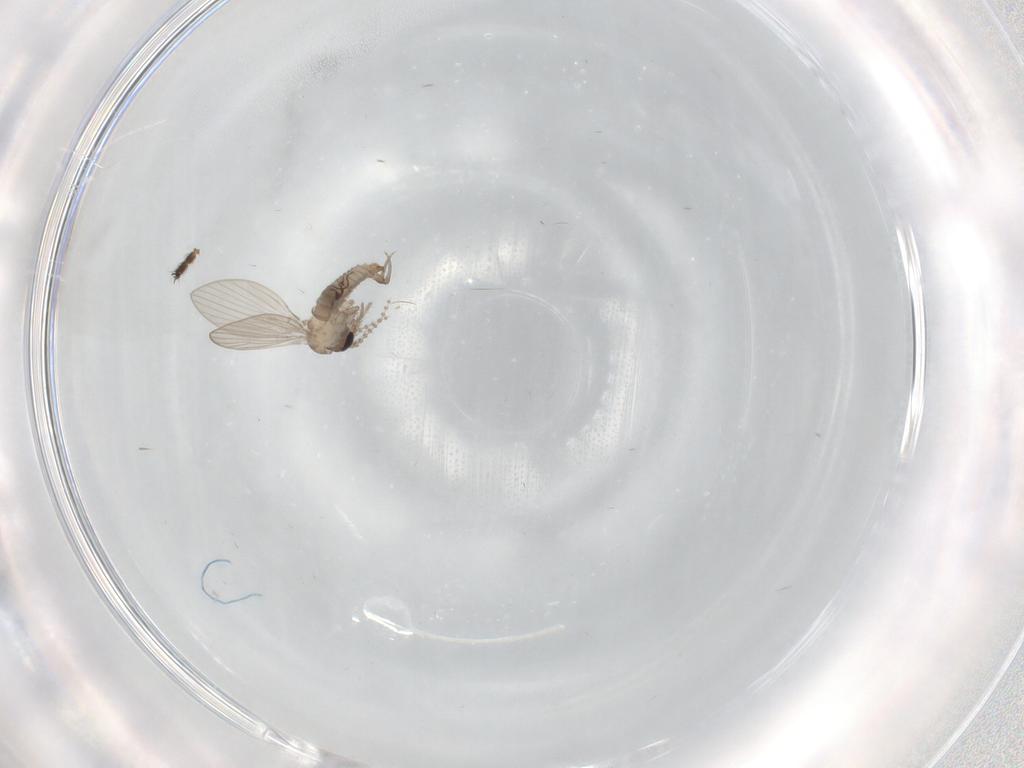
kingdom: Animalia
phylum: Arthropoda
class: Insecta
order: Diptera
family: Psychodidae
